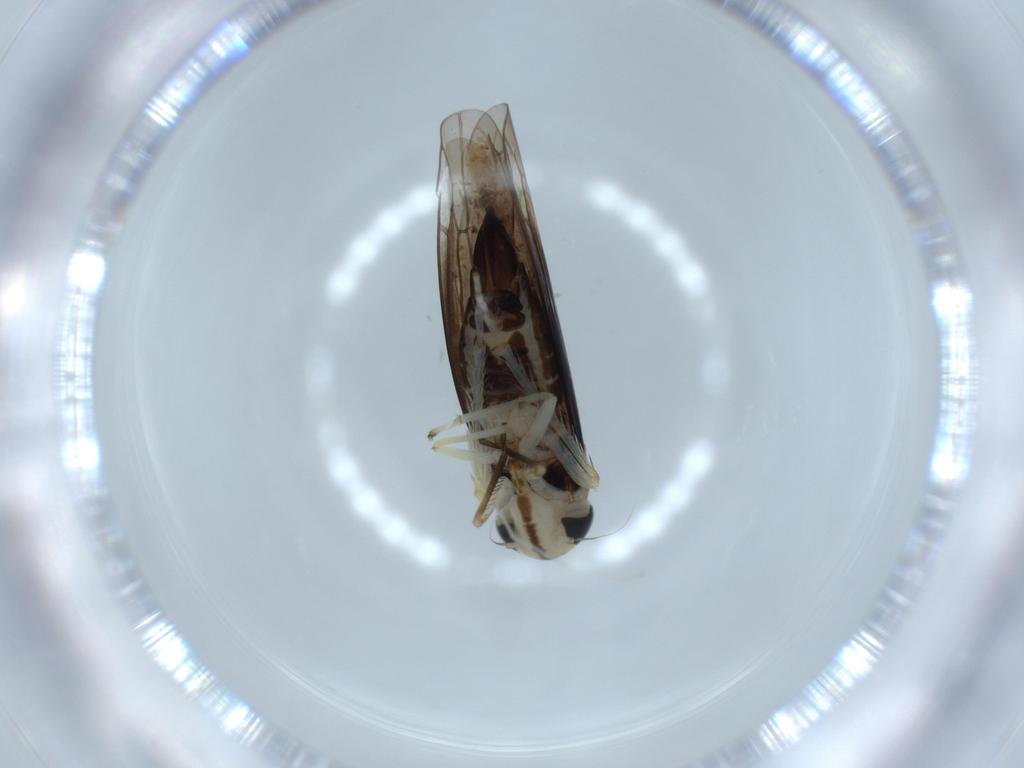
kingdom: Animalia
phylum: Arthropoda
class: Insecta
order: Hemiptera
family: Cicadellidae
